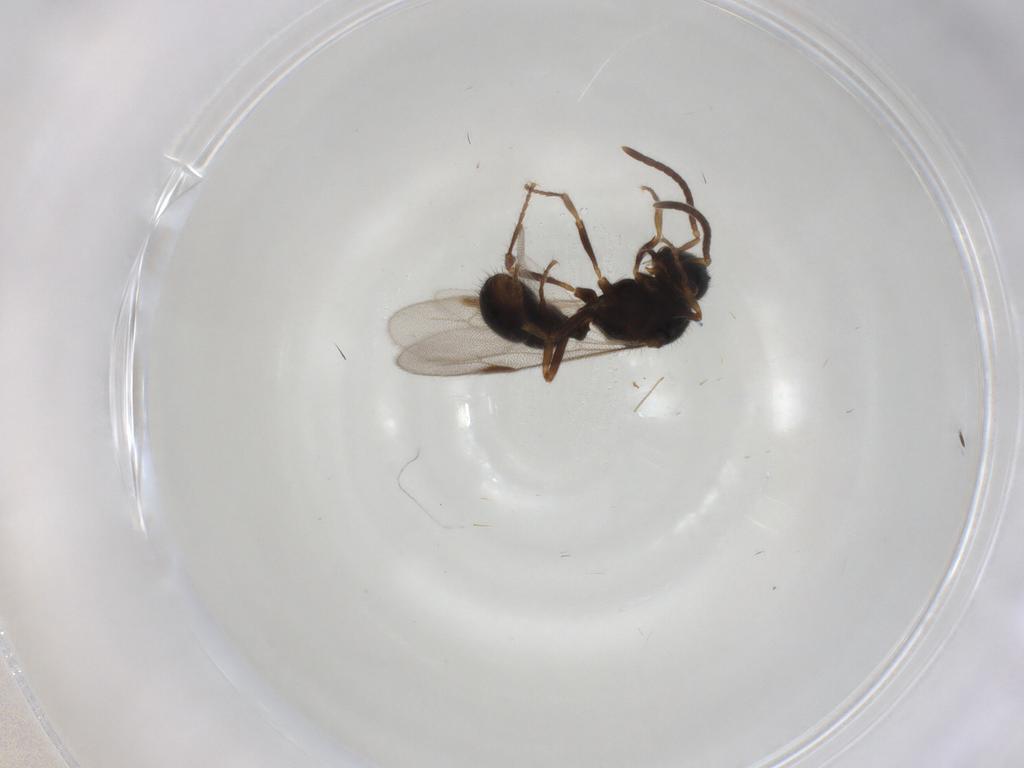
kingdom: Animalia
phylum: Arthropoda
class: Insecta
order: Hymenoptera
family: Formicidae
